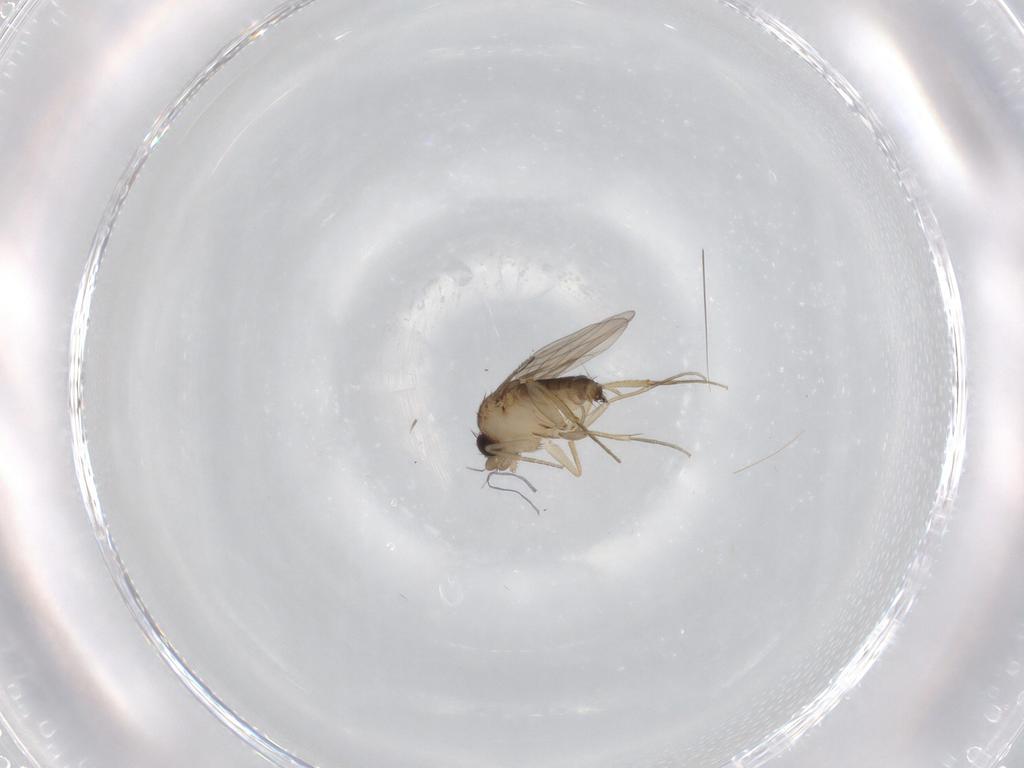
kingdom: Animalia
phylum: Arthropoda
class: Insecta
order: Diptera
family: Sciaridae
